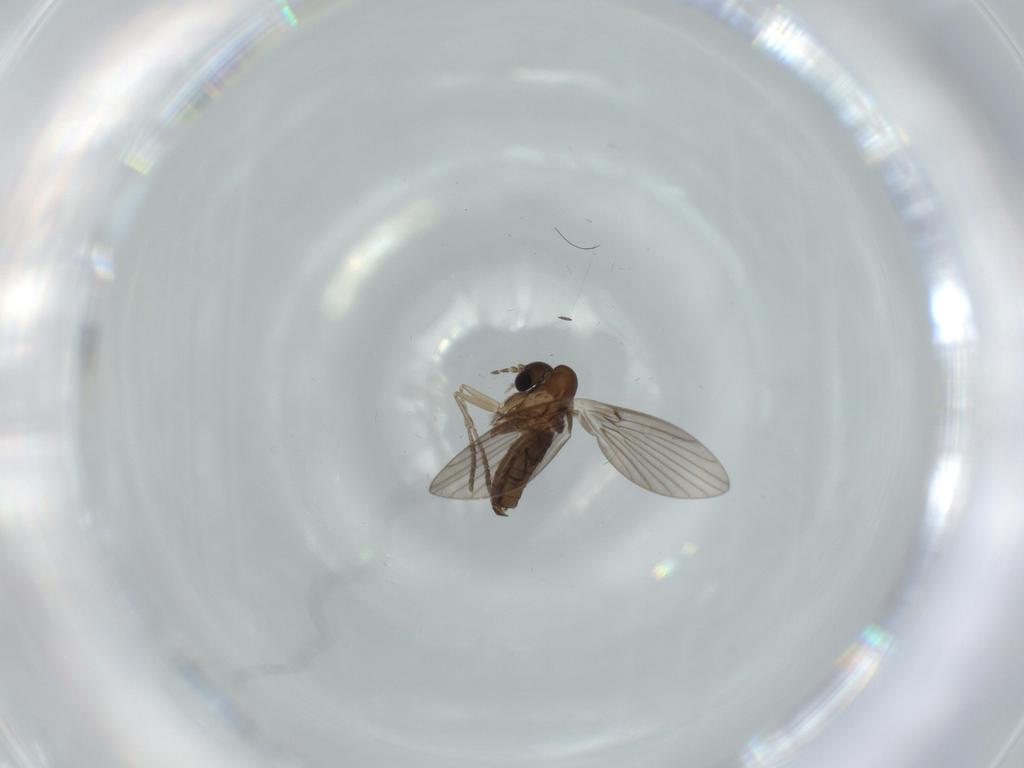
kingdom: Animalia
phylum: Arthropoda
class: Insecta
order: Diptera
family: Psychodidae
